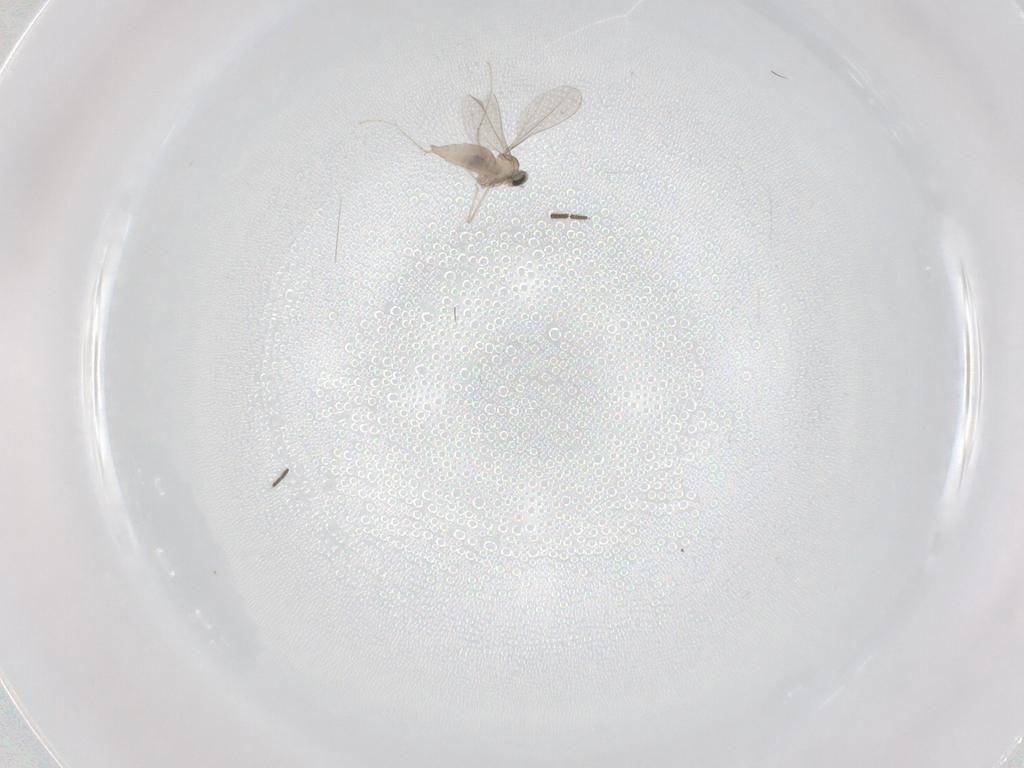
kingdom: Animalia
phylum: Arthropoda
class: Insecta
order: Diptera
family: Cecidomyiidae
